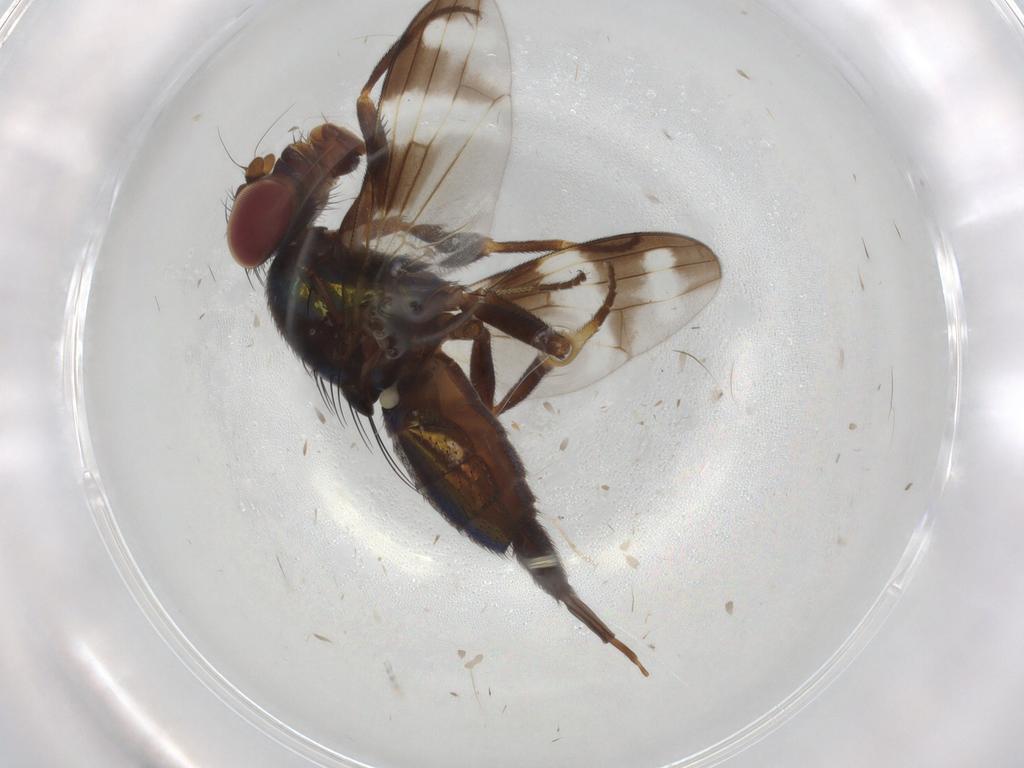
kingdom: Animalia
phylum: Arthropoda
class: Insecta
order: Diptera
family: Ulidiidae
